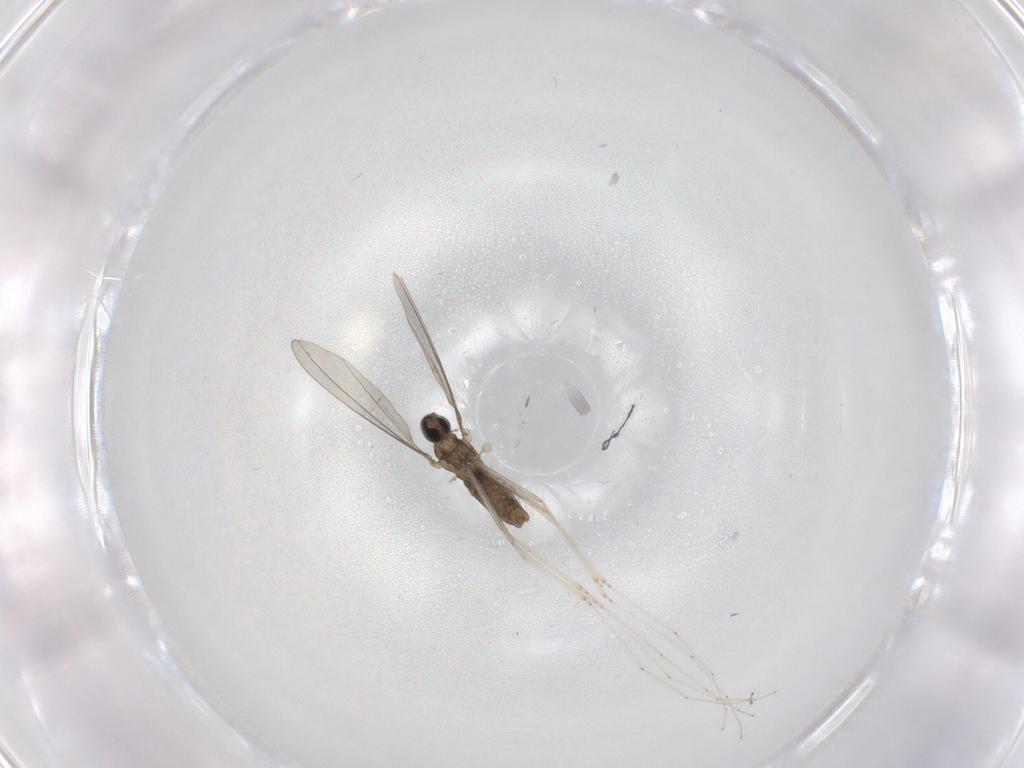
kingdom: Animalia
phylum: Arthropoda
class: Insecta
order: Diptera
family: Cecidomyiidae
